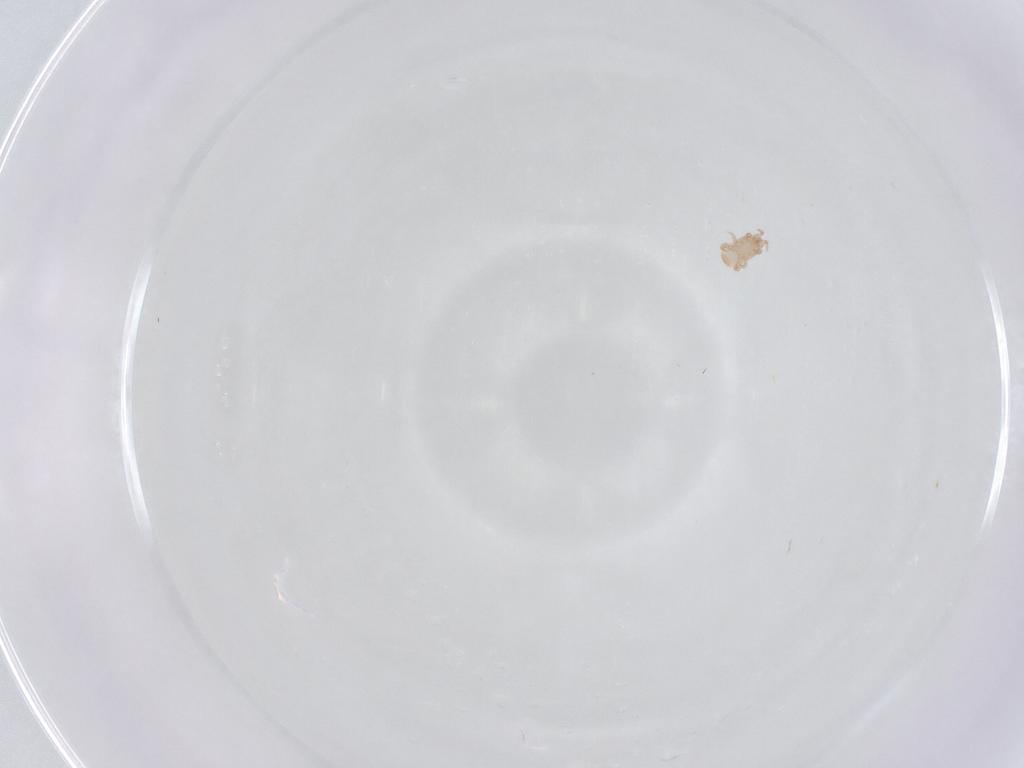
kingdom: Animalia
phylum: Arthropoda
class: Arachnida
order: Mesostigmata
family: Digamasellidae
